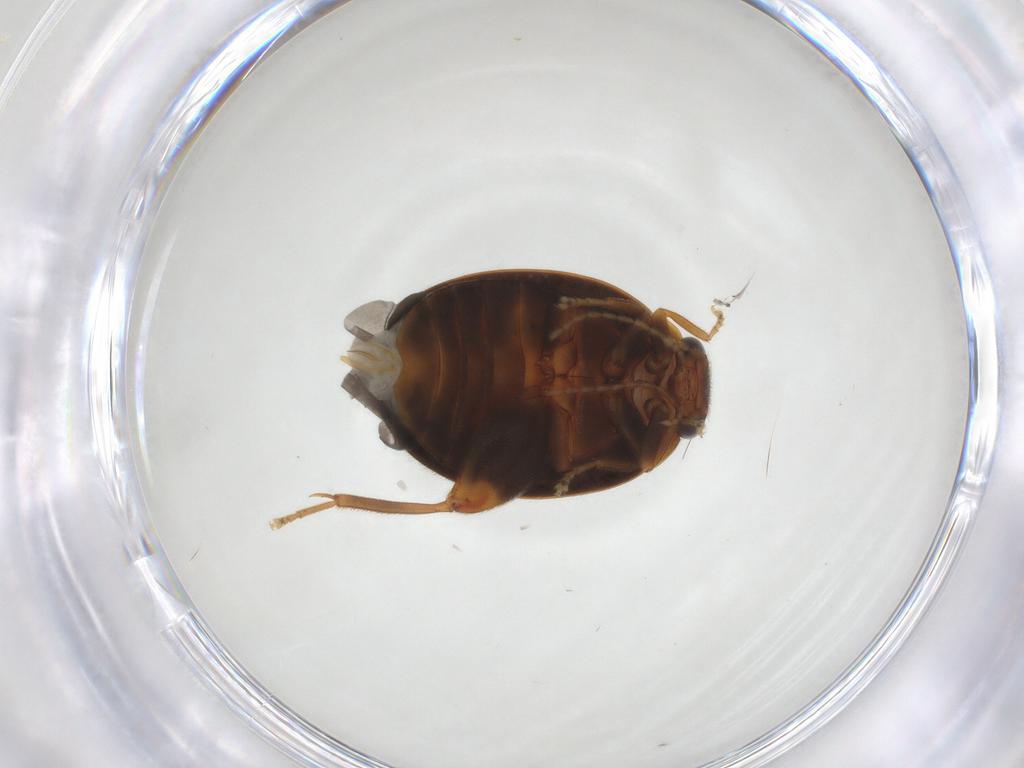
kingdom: Animalia
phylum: Arthropoda
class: Insecta
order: Coleoptera
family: Scirtidae
